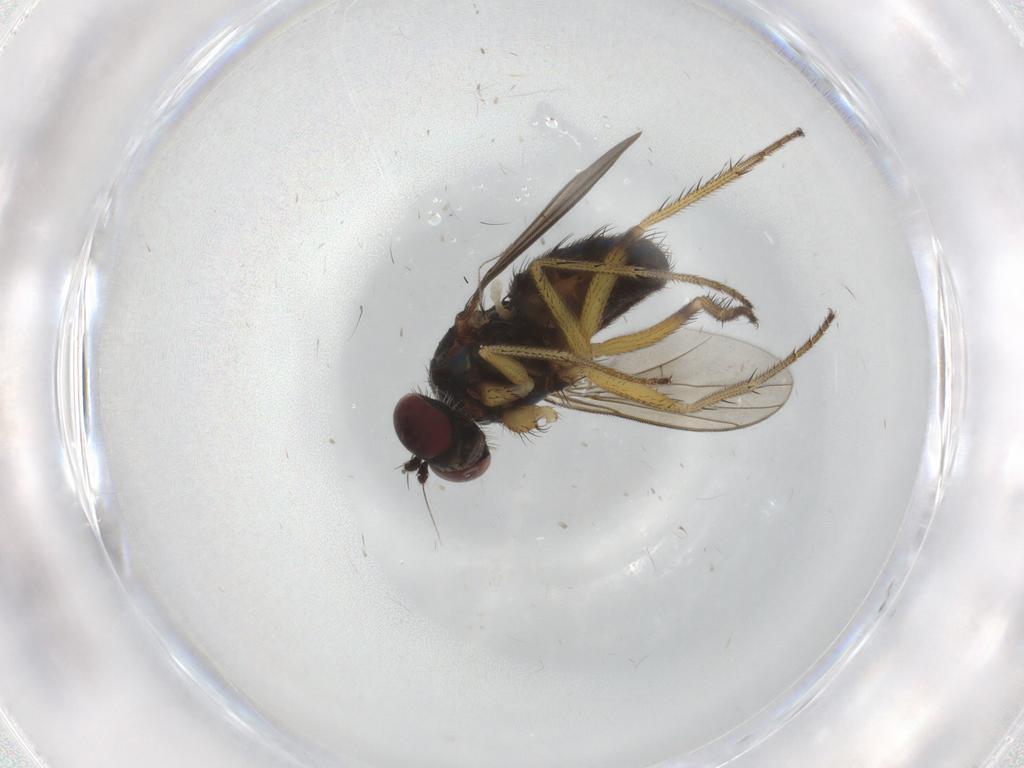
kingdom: Animalia
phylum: Arthropoda
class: Insecta
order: Diptera
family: Dolichopodidae
